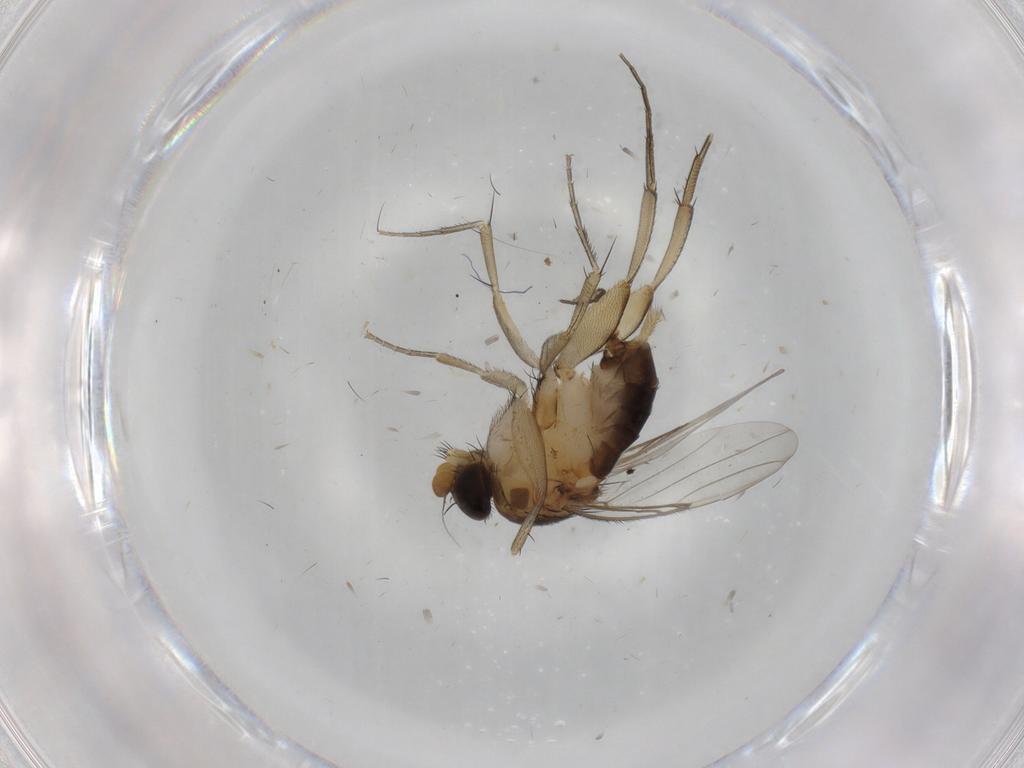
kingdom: Animalia
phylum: Arthropoda
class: Insecta
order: Diptera
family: Phoridae
